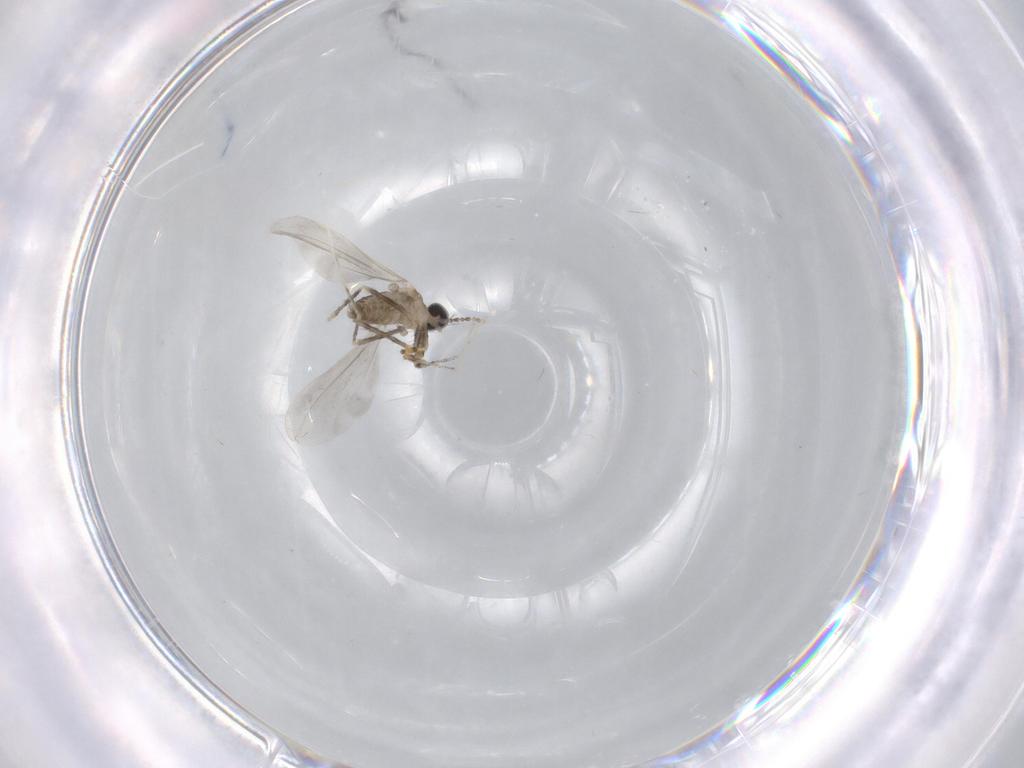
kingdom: Animalia
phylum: Arthropoda
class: Insecta
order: Diptera
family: Cecidomyiidae
